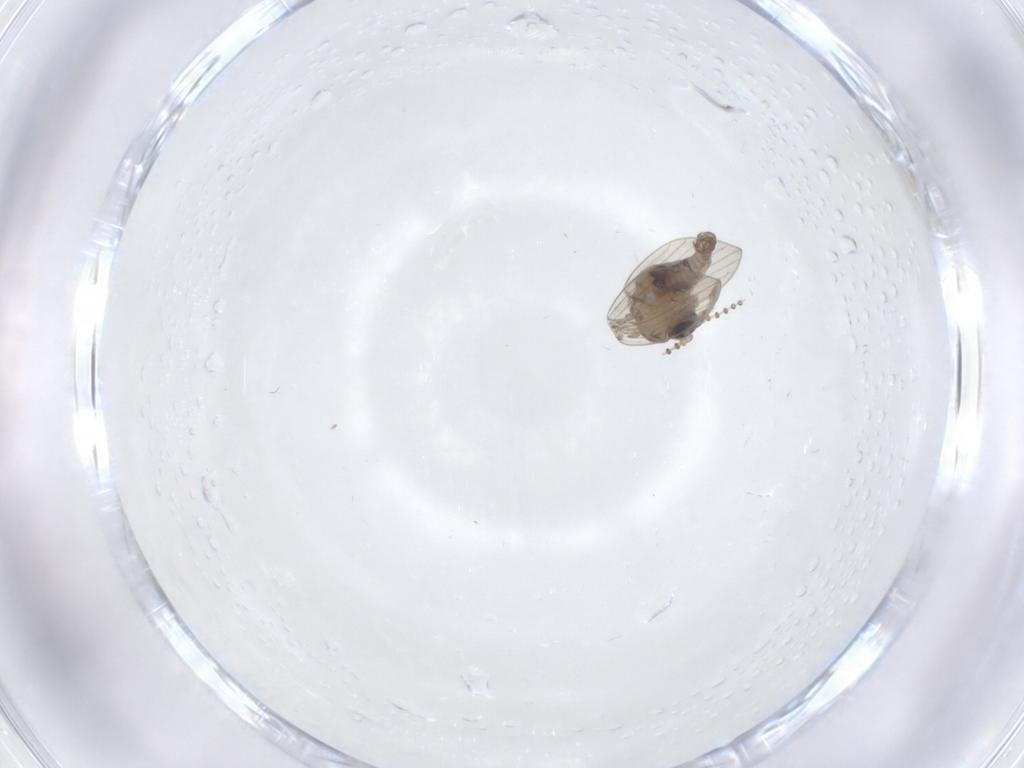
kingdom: Animalia
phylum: Arthropoda
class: Insecta
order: Diptera
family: Psychodidae
